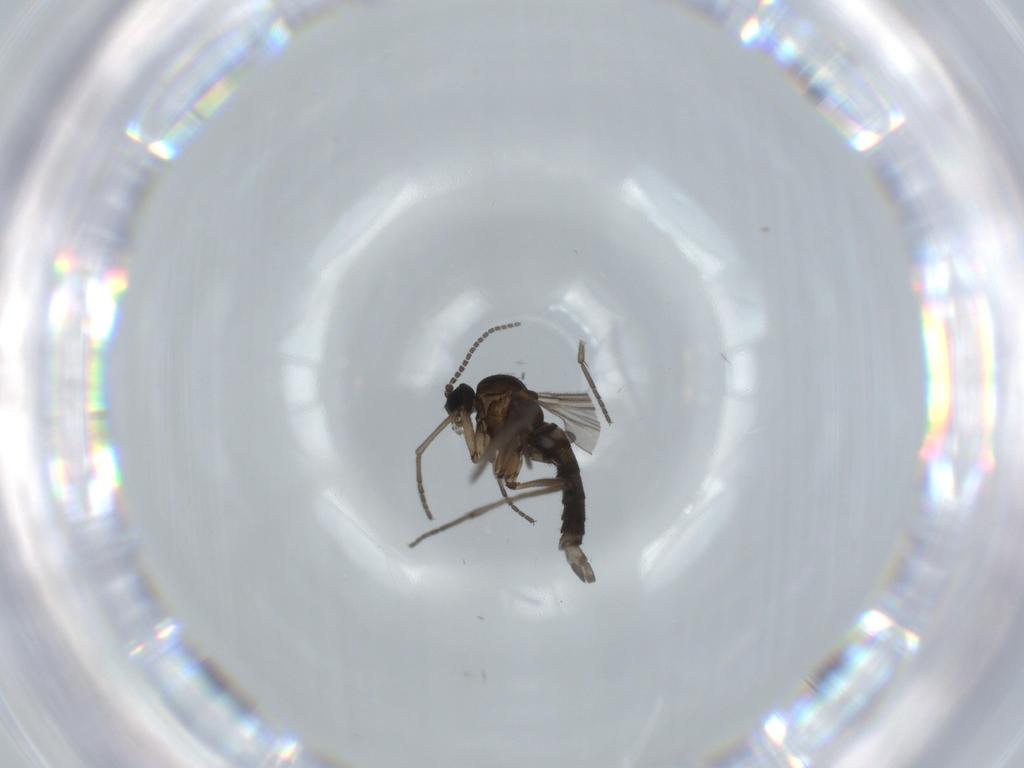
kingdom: Animalia
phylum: Arthropoda
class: Insecta
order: Diptera
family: Sciaridae
